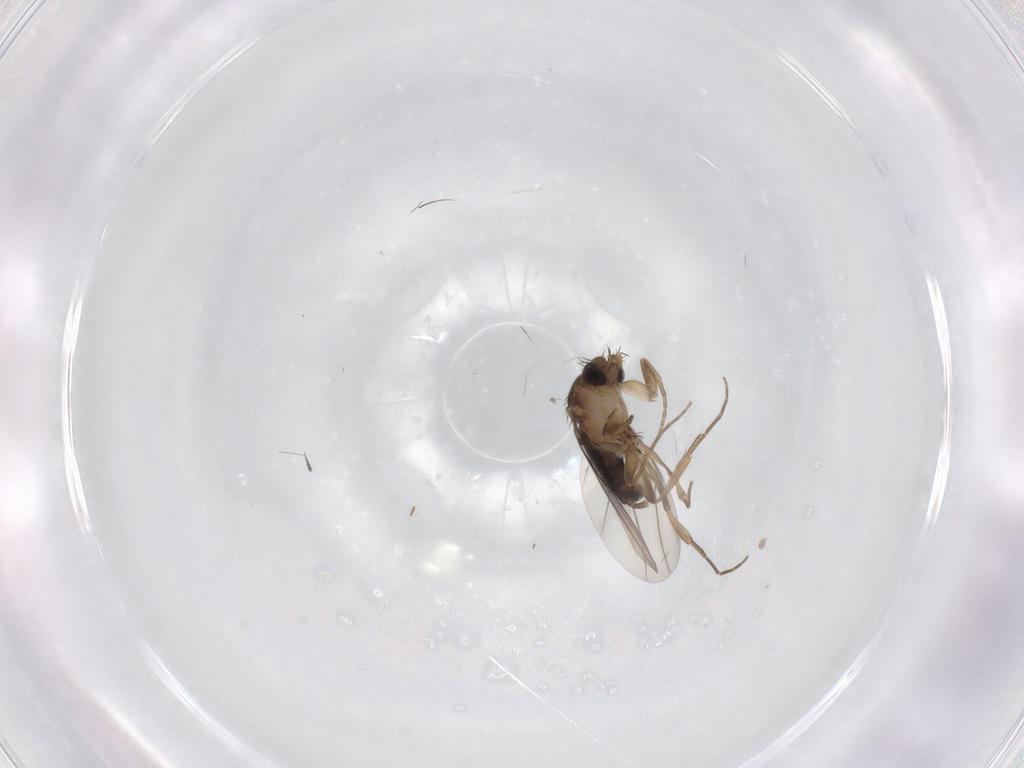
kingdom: Animalia
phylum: Arthropoda
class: Insecta
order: Diptera
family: Phoridae
